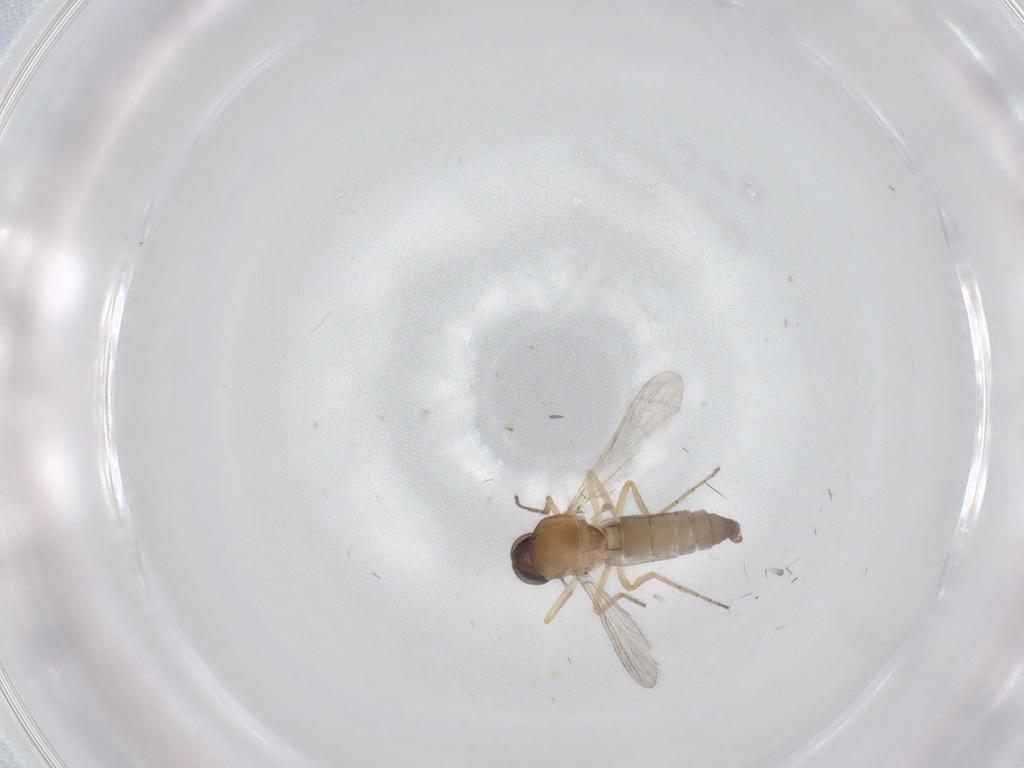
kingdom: Animalia
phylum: Arthropoda
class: Insecta
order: Diptera
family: Ceratopogonidae
